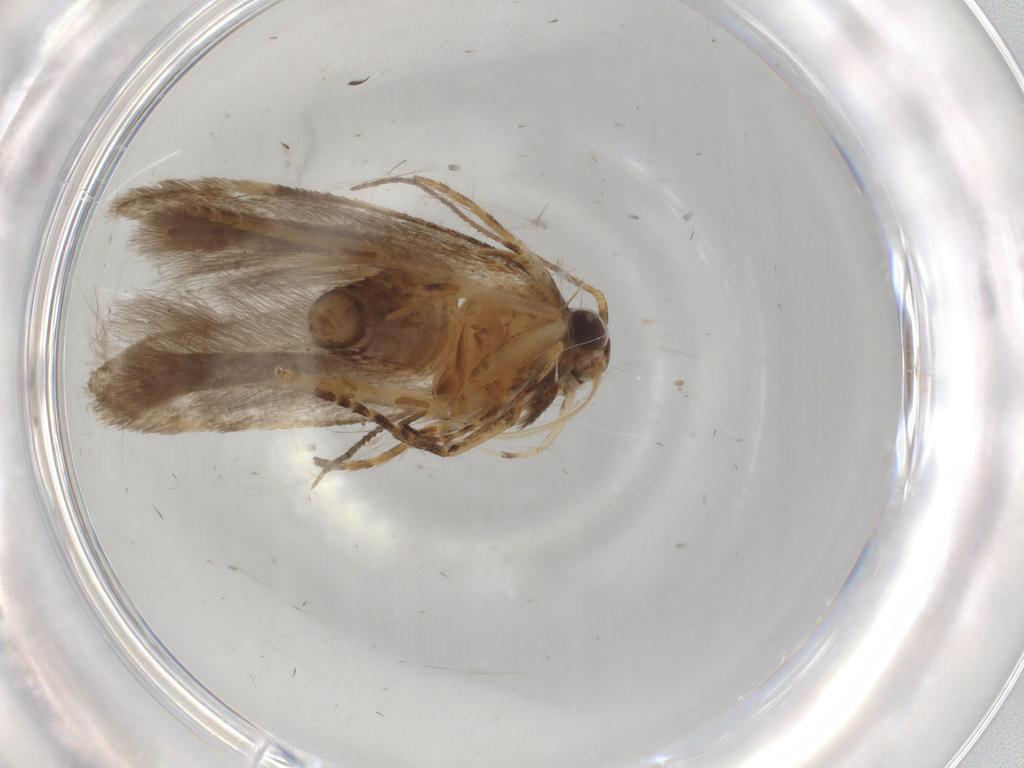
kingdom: Animalia
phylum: Arthropoda
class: Insecta
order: Lepidoptera
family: Gelechiidae
